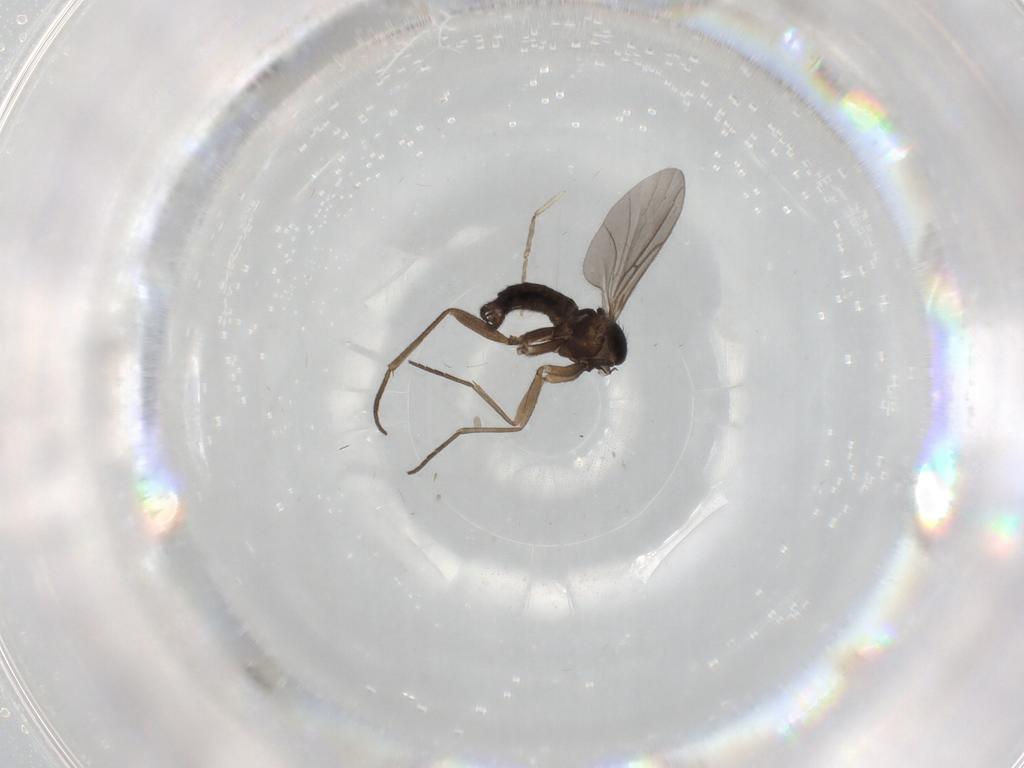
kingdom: Animalia
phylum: Arthropoda
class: Insecta
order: Diptera
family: Sciaridae
